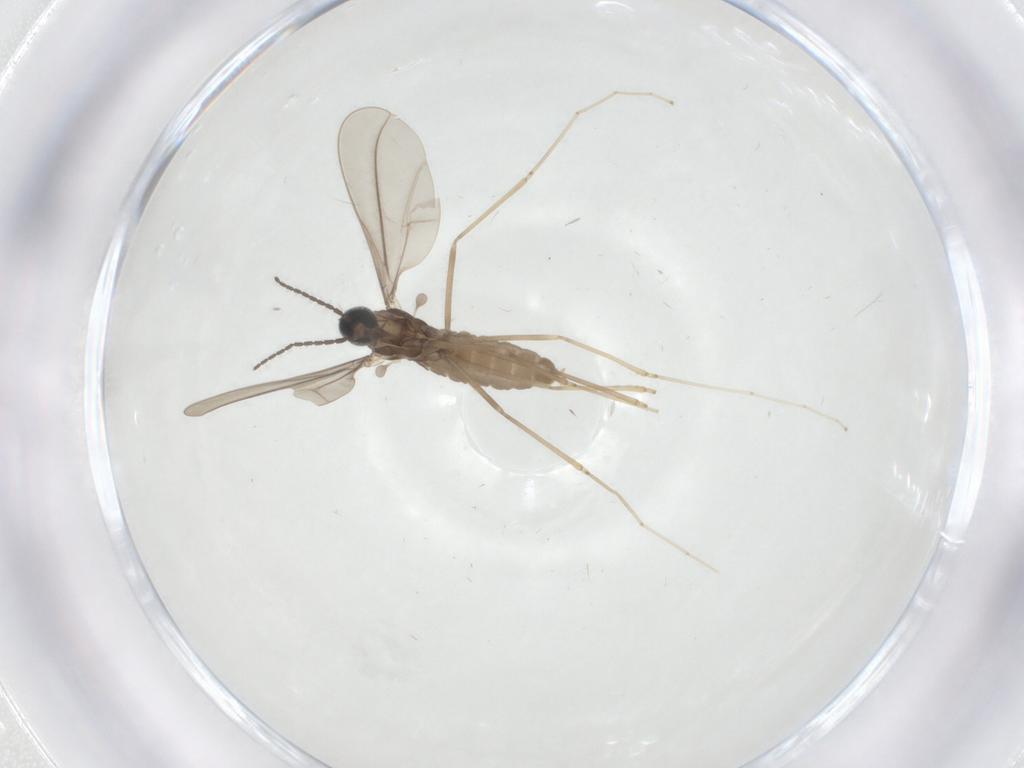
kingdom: Animalia
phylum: Arthropoda
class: Insecta
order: Diptera
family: Cecidomyiidae
